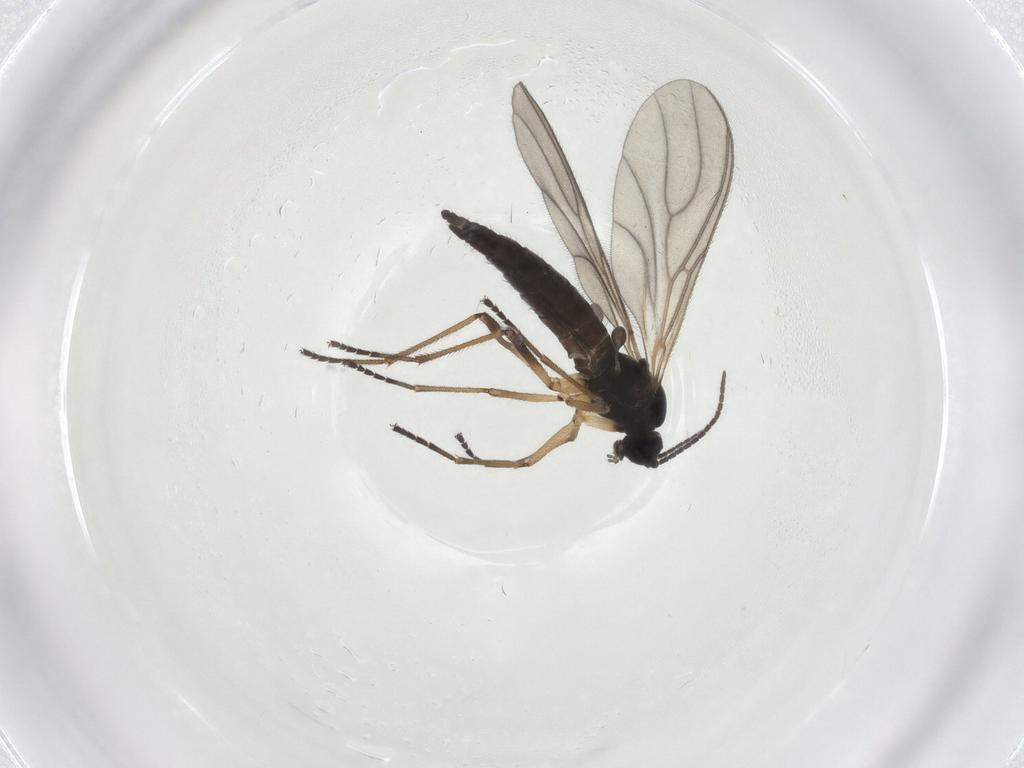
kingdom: Animalia
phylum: Arthropoda
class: Insecta
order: Diptera
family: Sciaridae
